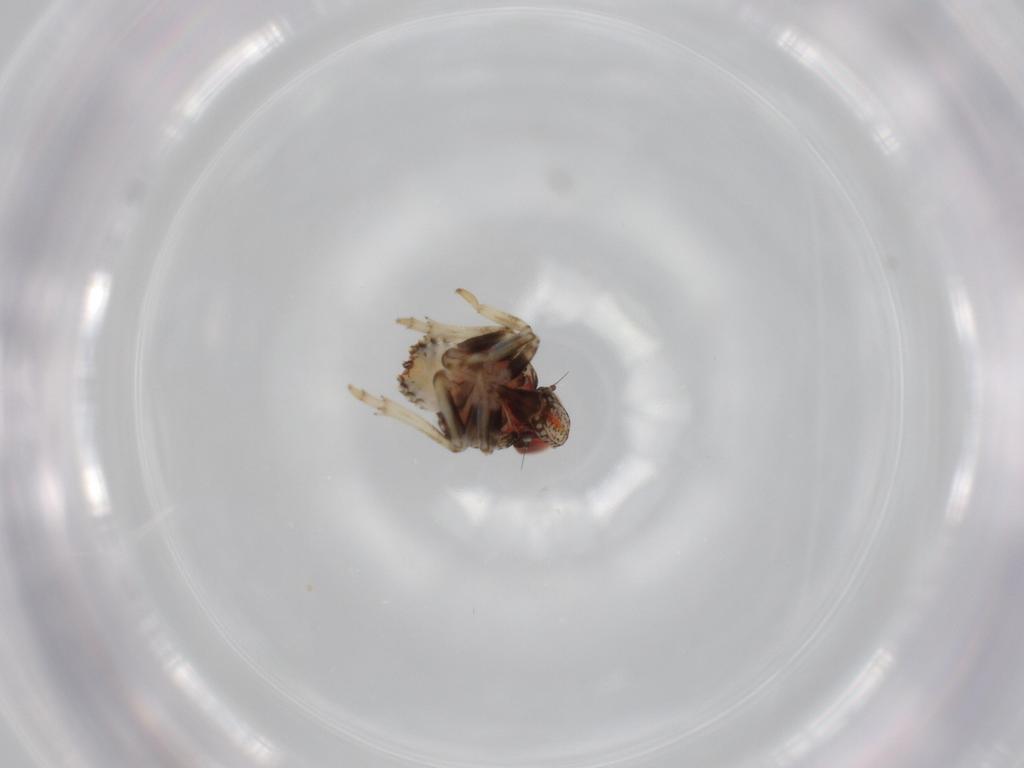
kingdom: Animalia
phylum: Arthropoda
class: Insecta
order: Hemiptera
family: Issidae
